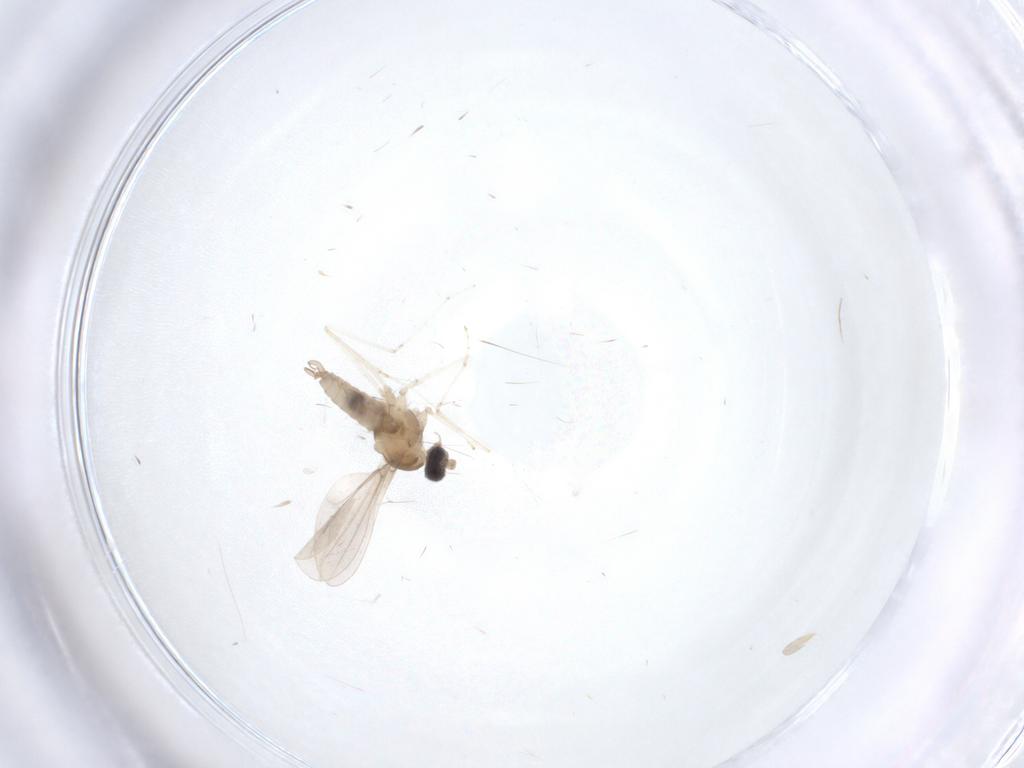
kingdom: Animalia
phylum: Arthropoda
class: Insecta
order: Diptera
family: Cecidomyiidae
